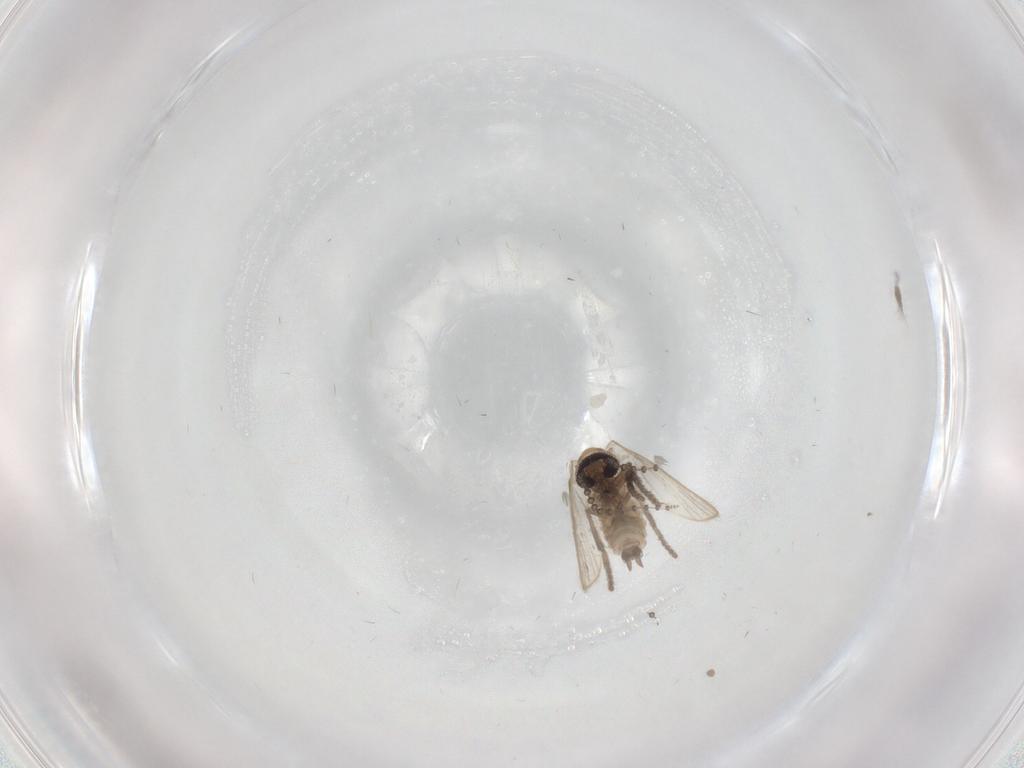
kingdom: Animalia
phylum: Arthropoda
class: Insecta
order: Diptera
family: Psychodidae
